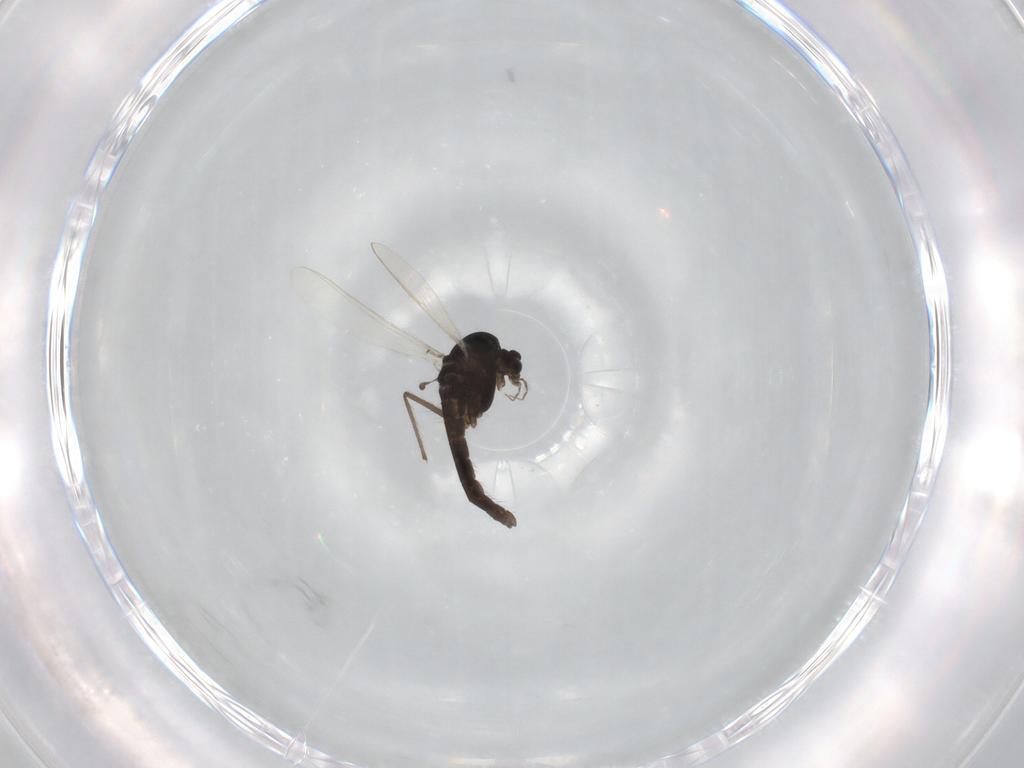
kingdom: Animalia
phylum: Arthropoda
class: Insecta
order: Diptera
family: Chironomidae
